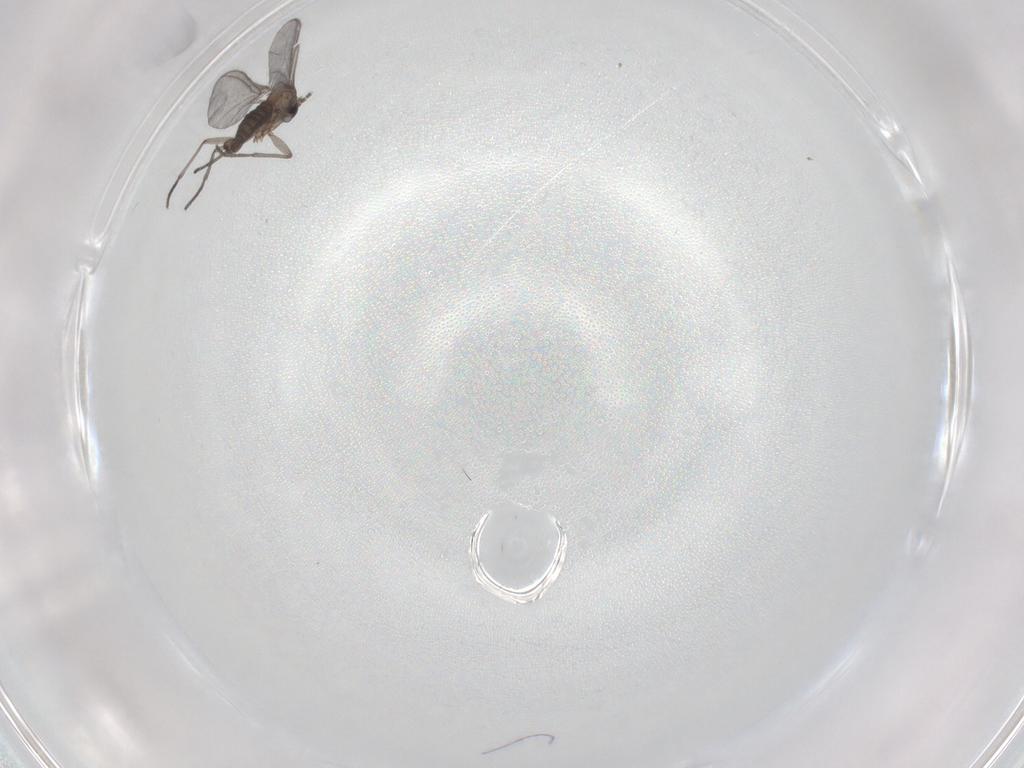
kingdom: Animalia
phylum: Arthropoda
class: Insecta
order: Diptera
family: Sciaridae
